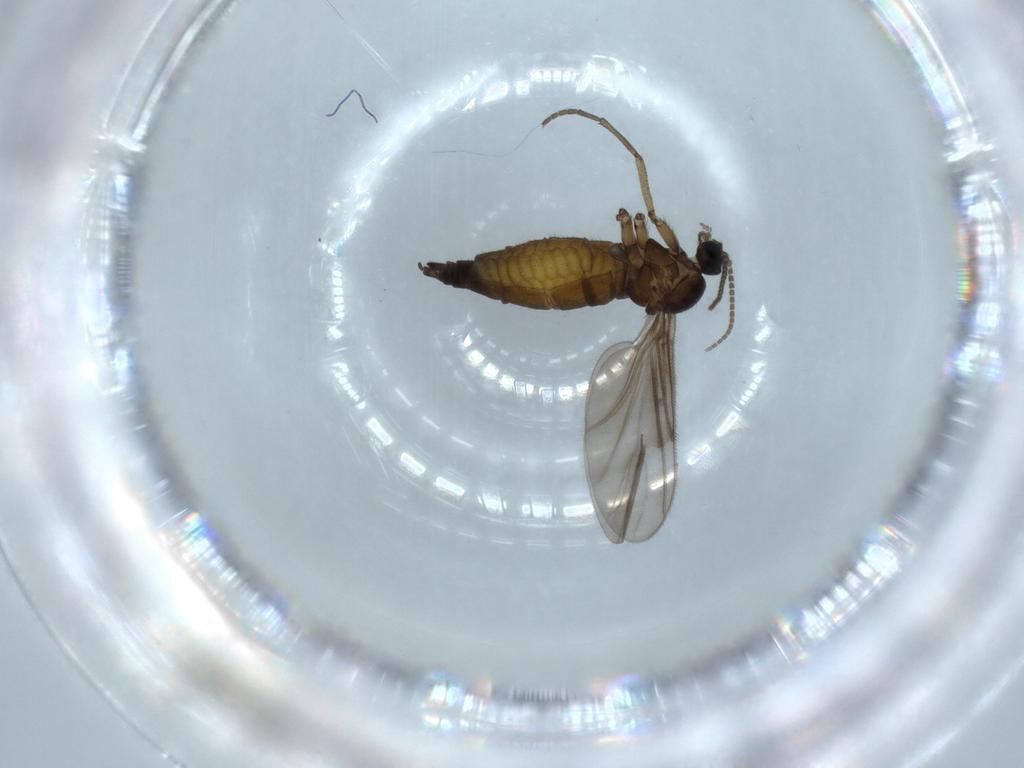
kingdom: Animalia
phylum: Arthropoda
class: Insecta
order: Diptera
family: Sciaridae
